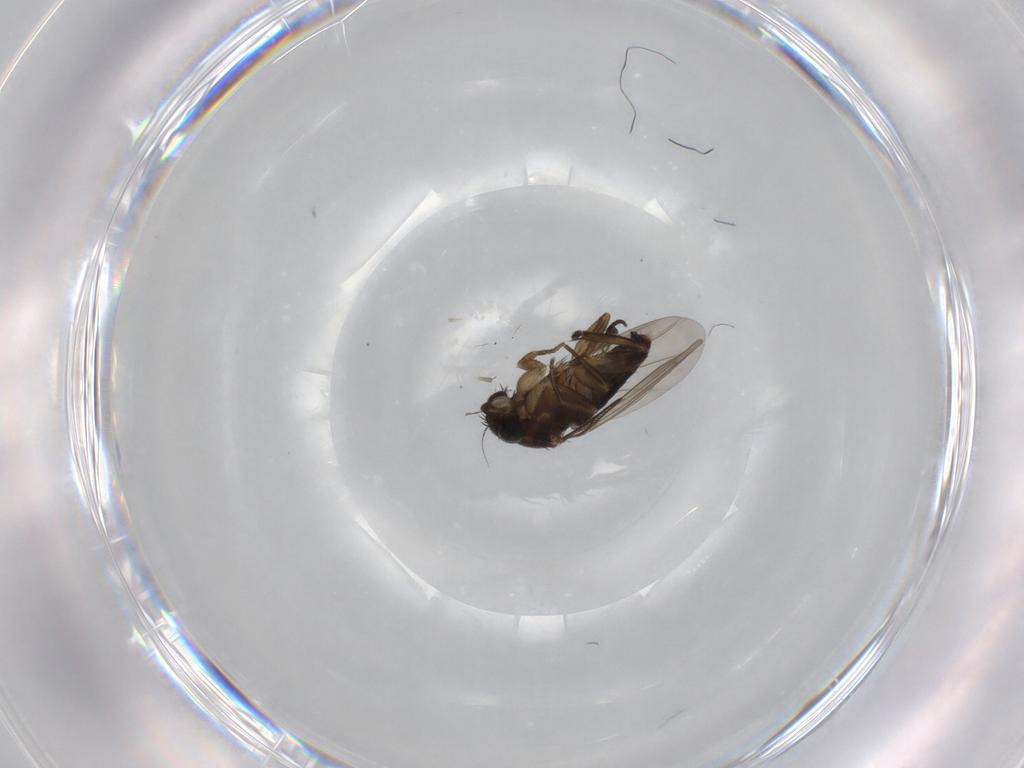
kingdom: Animalia
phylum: Arthropoda
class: Insecta
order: Diptera
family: Phoridae
